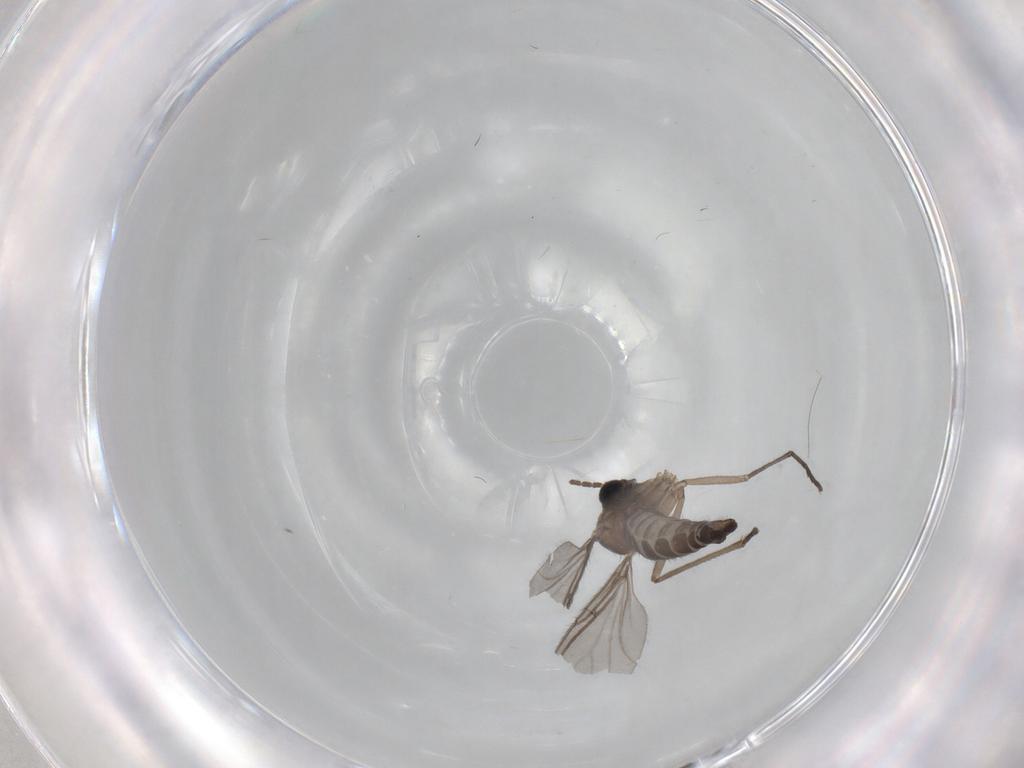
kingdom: Animalia
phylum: Arthropoda
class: Insecta
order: Diptera
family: Sciaridae
